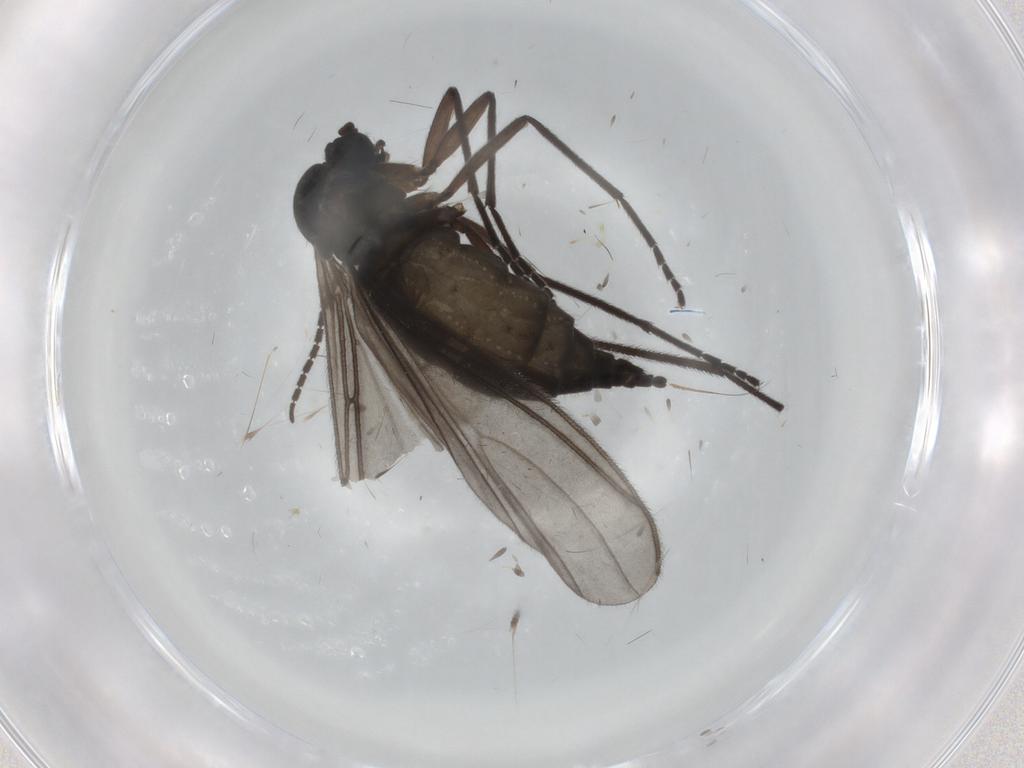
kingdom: Animalia
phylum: Arthropoda
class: Insecta
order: Diptera
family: Sciaridae
